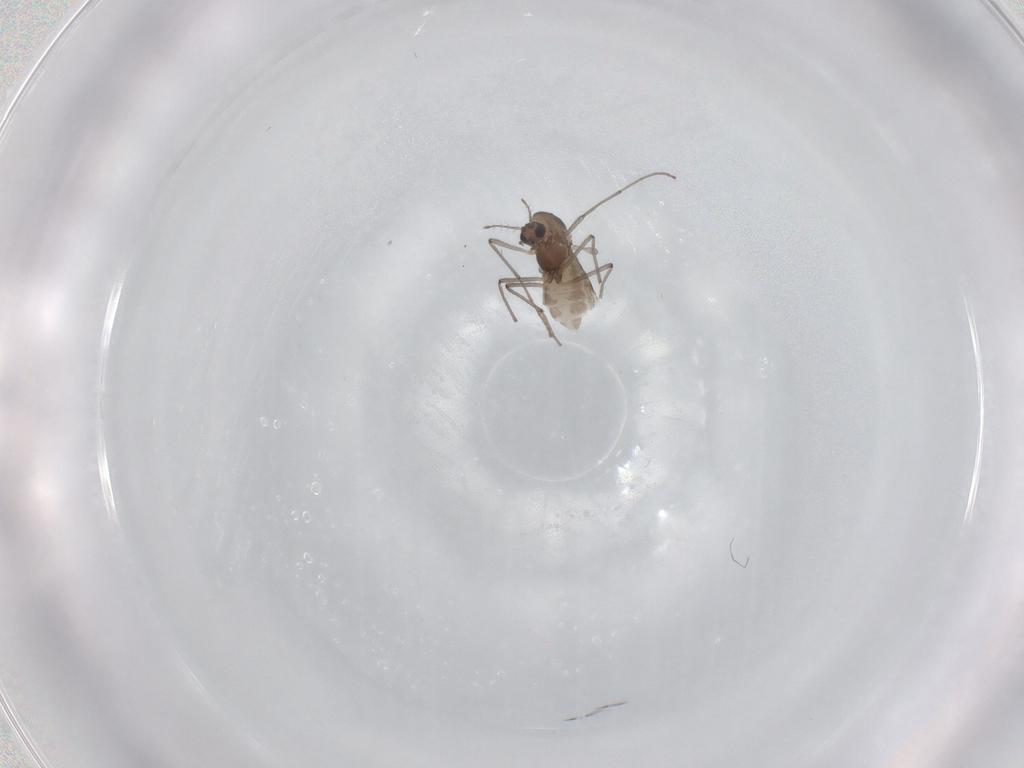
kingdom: Animalia
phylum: Arthropoda
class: Insecta
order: Diptera
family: Chironomidae
